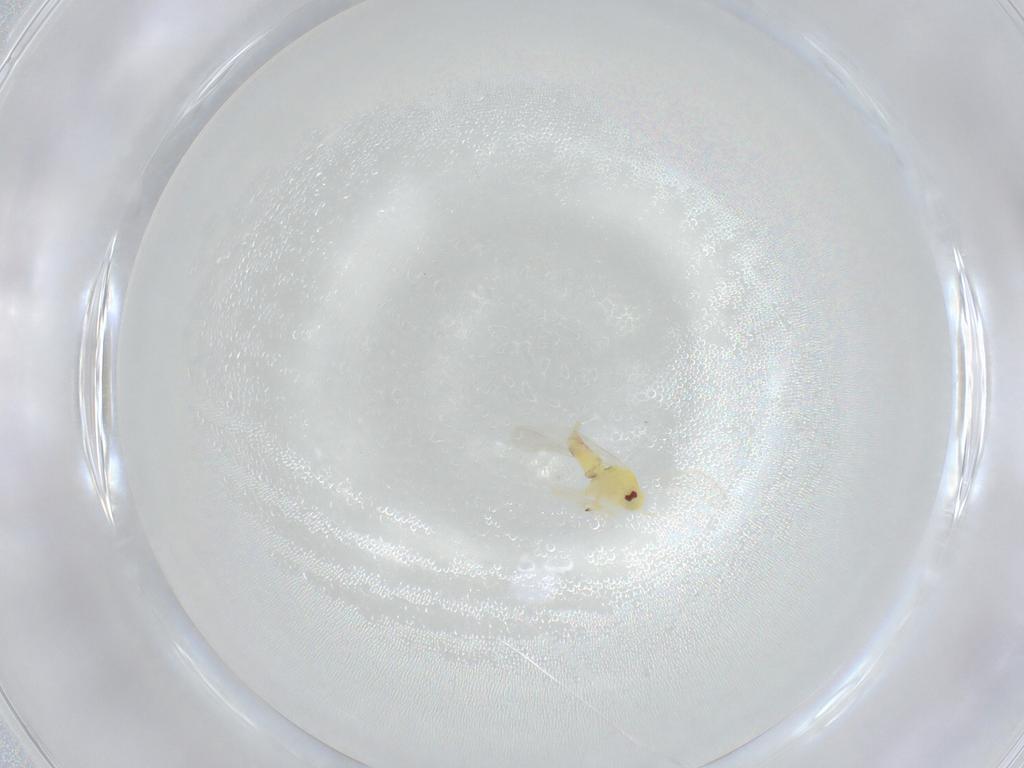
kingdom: Animalia
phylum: Arthropoda
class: Insecta
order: Hemiptera
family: Aleyrodidae
